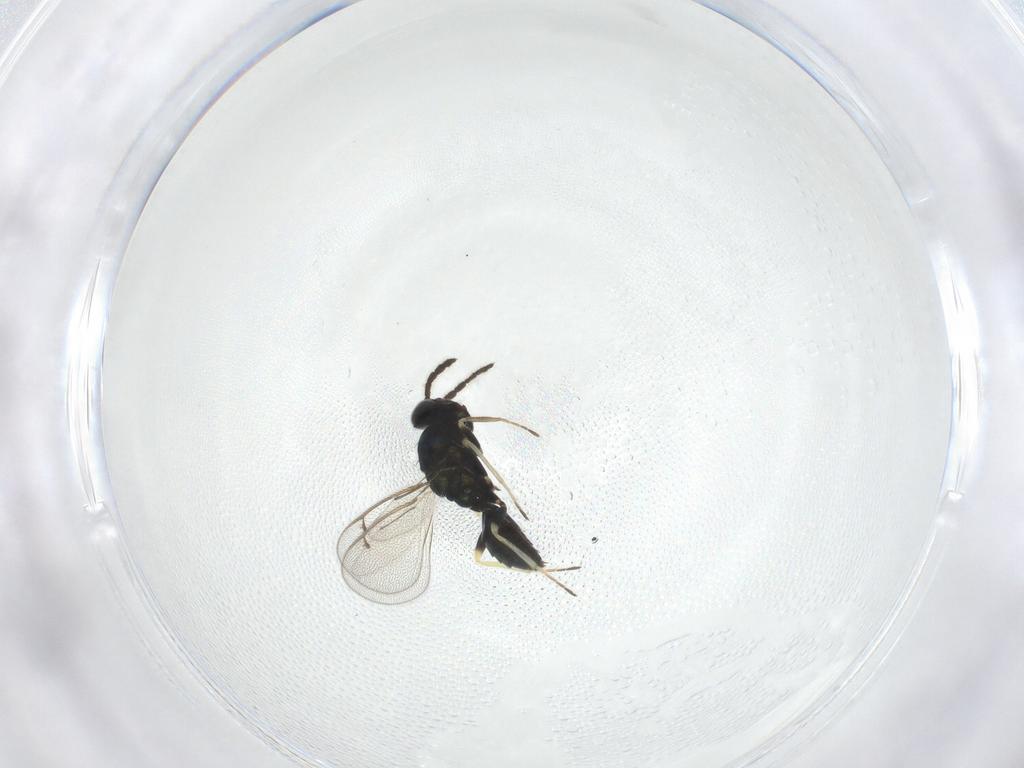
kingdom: Animalia
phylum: Arthropoda
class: Insecta
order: Hymenoptera
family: Eulophidae
